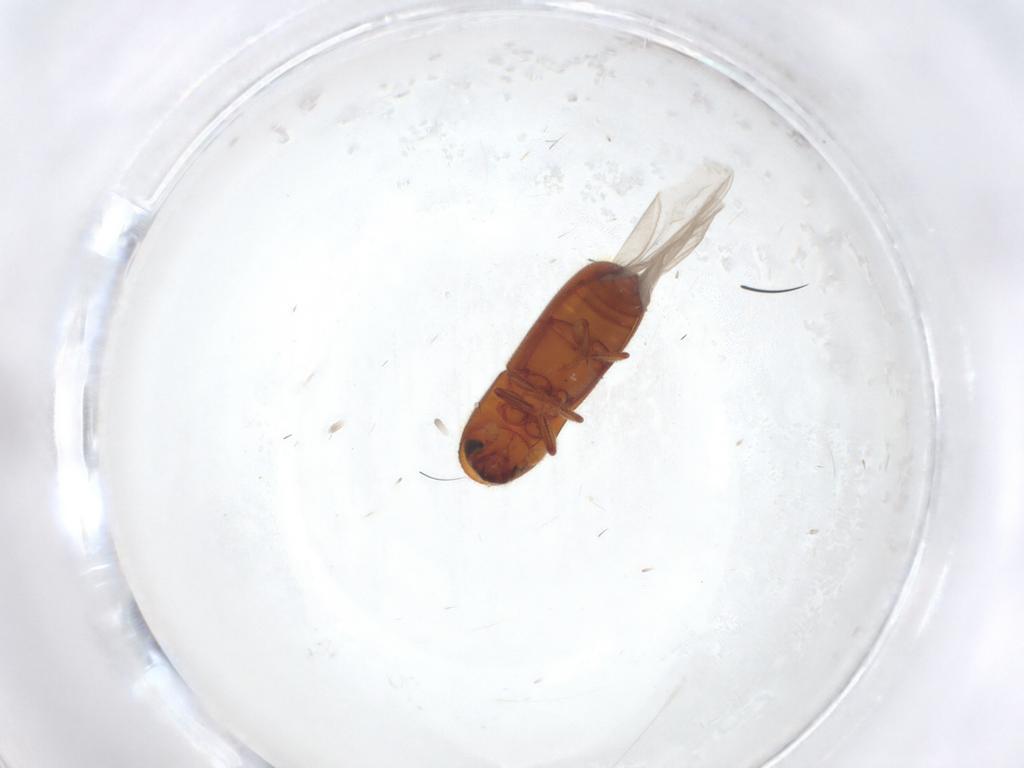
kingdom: Animalia
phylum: Arthropoda
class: Insecta
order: Coleoptera
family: Curculionidae
